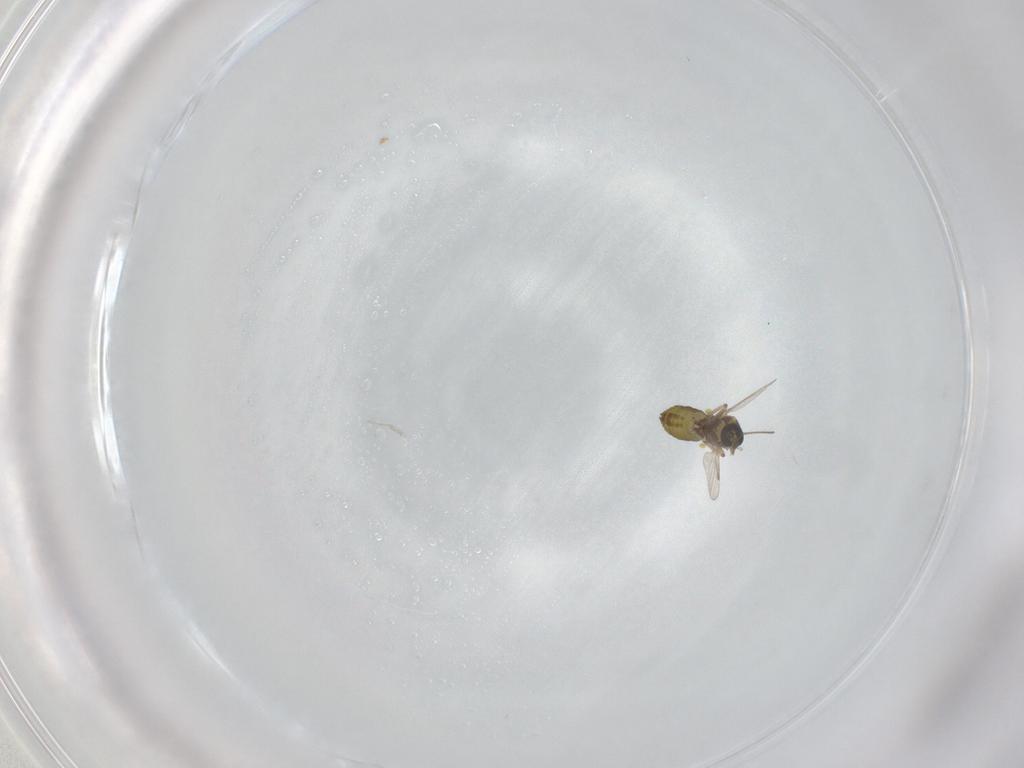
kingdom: Animalia
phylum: Arthropoda
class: Insecta
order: Diptera
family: Ceratopogonidae
